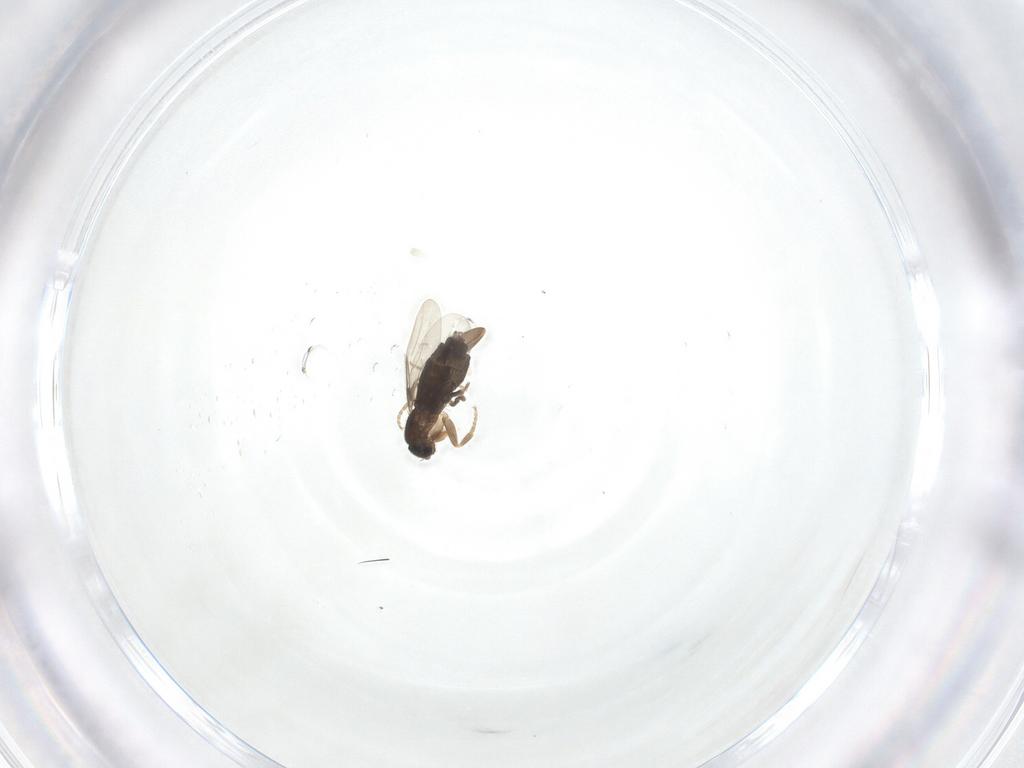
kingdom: Animalia
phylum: Arthropoda
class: Insecta
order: Diptera
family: Phoridae
